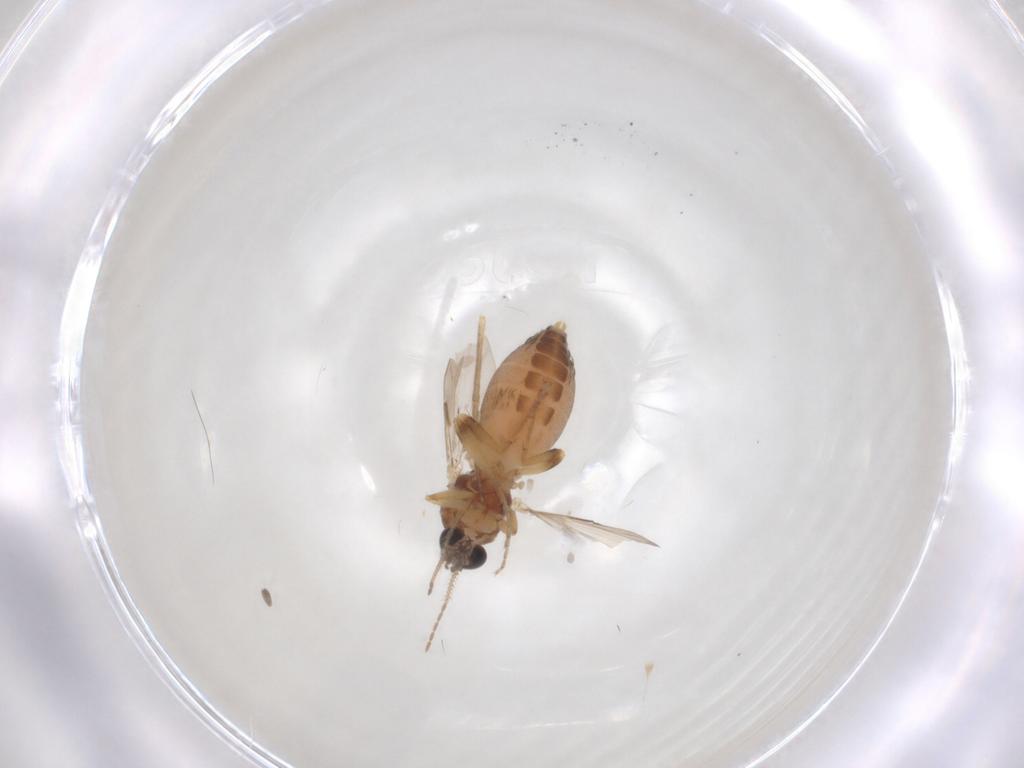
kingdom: Animalia
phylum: Arthropoda
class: Insecta
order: Diptera
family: Ceratopogonidae
